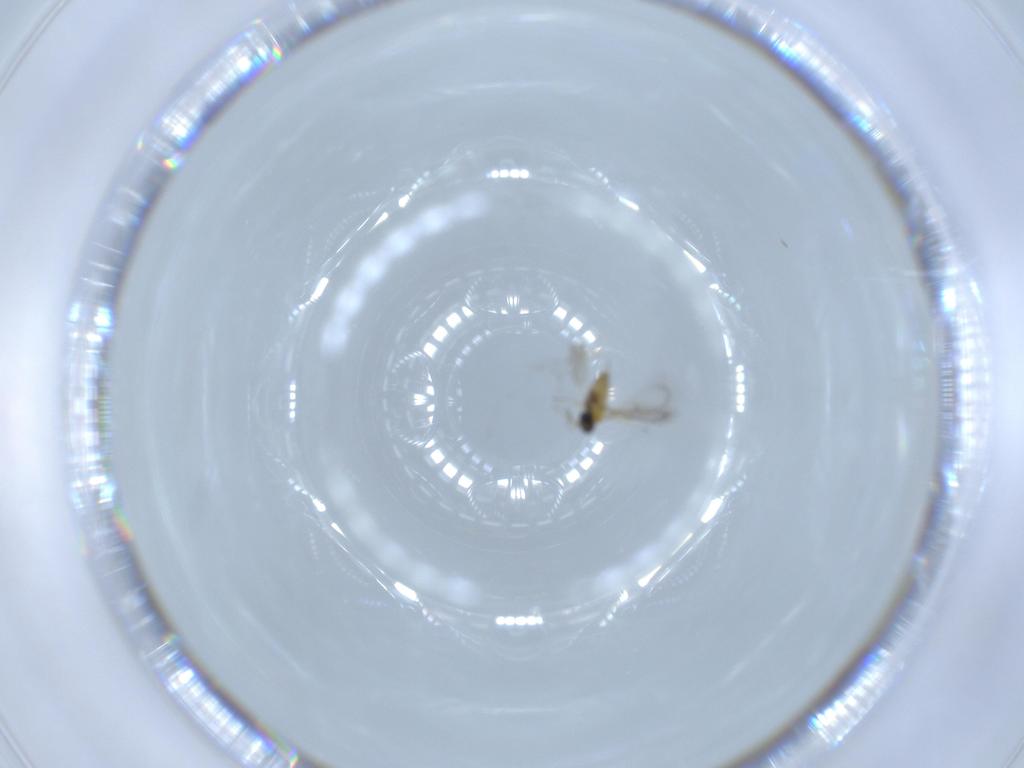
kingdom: Animalia
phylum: Arthropoda
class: Insecta
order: Hymenoptera
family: Trichogrammatidae
